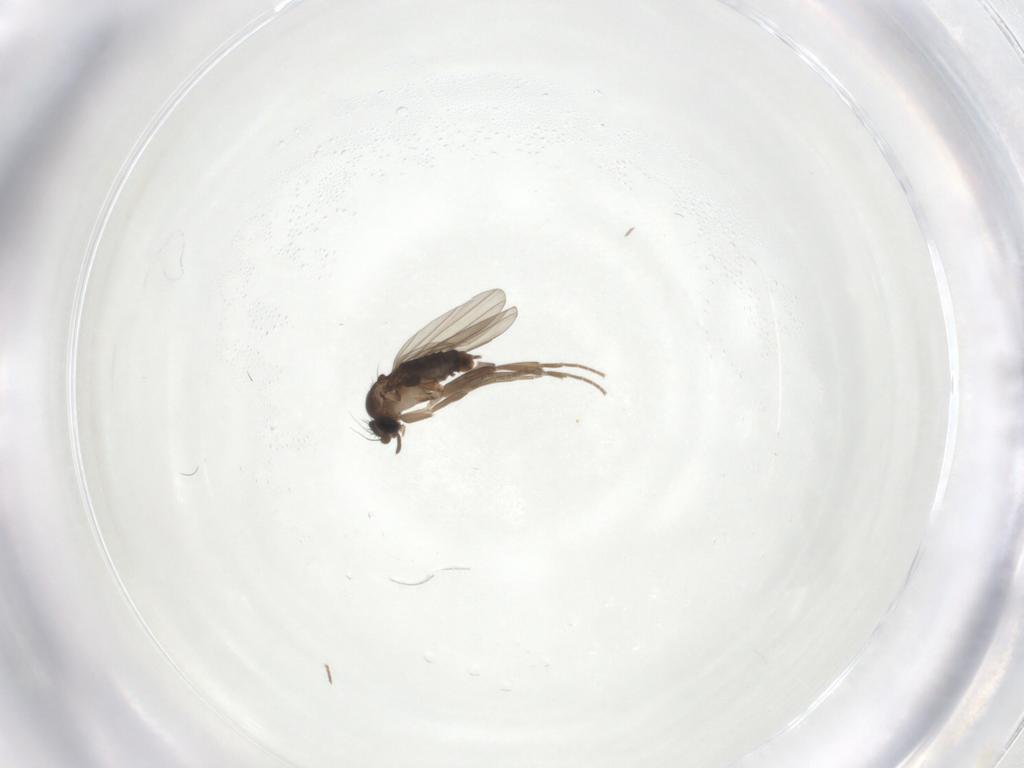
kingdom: Animalia
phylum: Arthropoda
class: Insecta
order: Diptera
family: Phoridae
